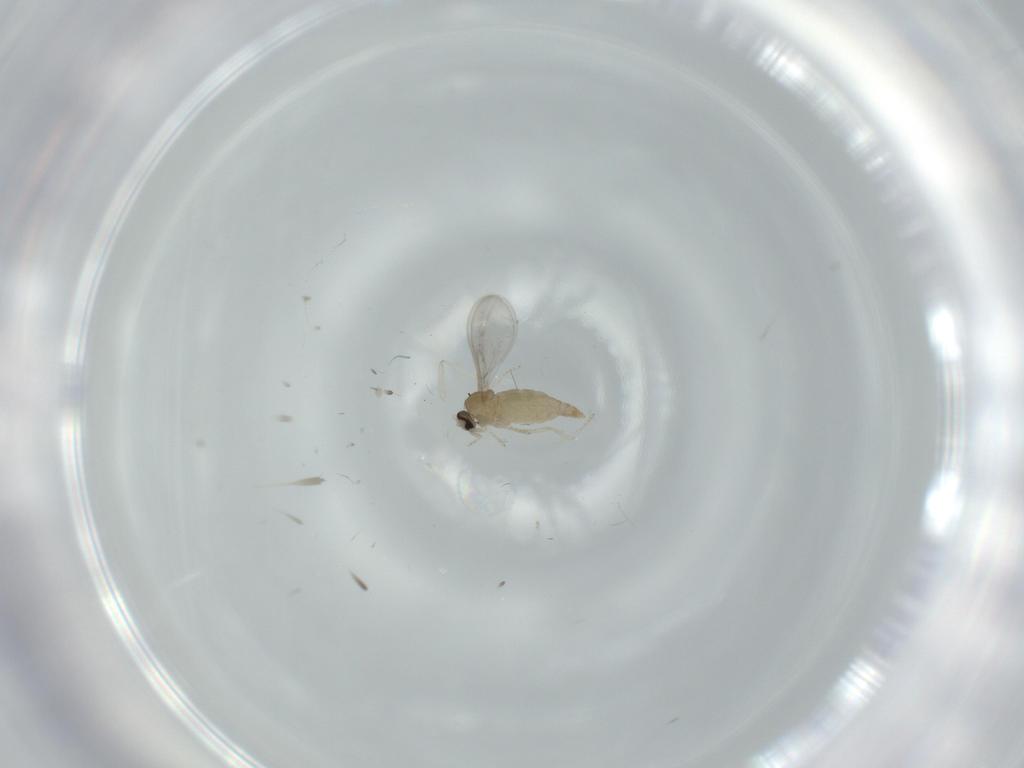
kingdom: Animalia
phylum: Arthropoda
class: Insecta
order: Diptera
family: Cecidomyiidae
